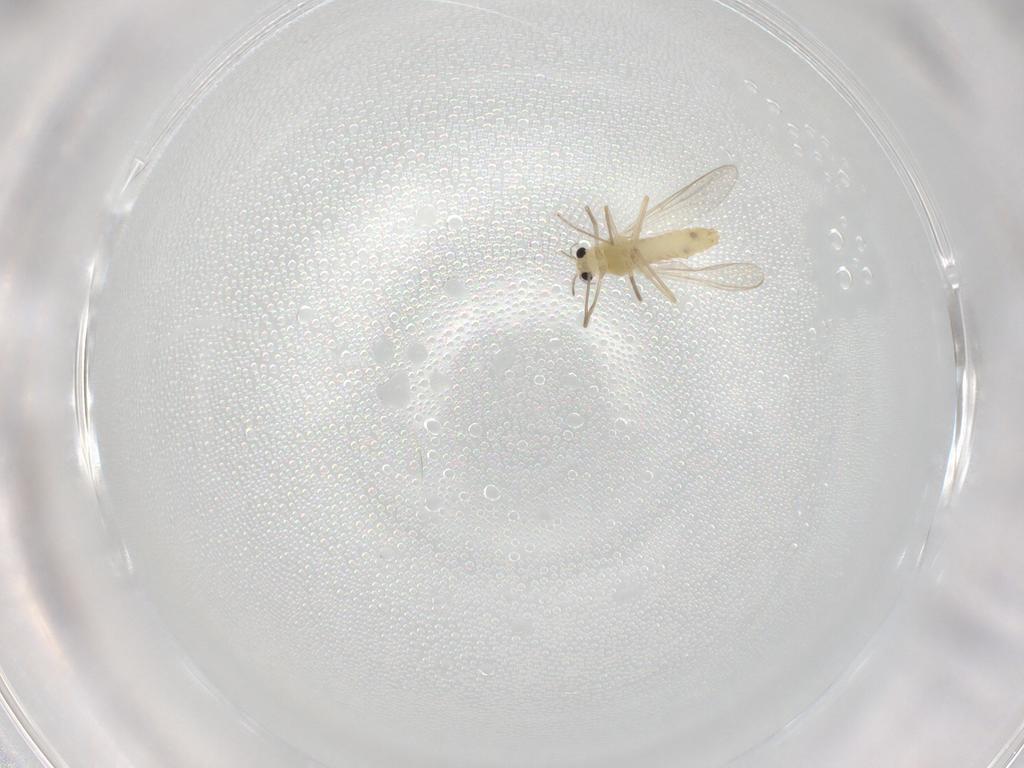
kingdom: Animalia
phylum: Arthropoda
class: Insecta
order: Diptera
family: Chironomidae
